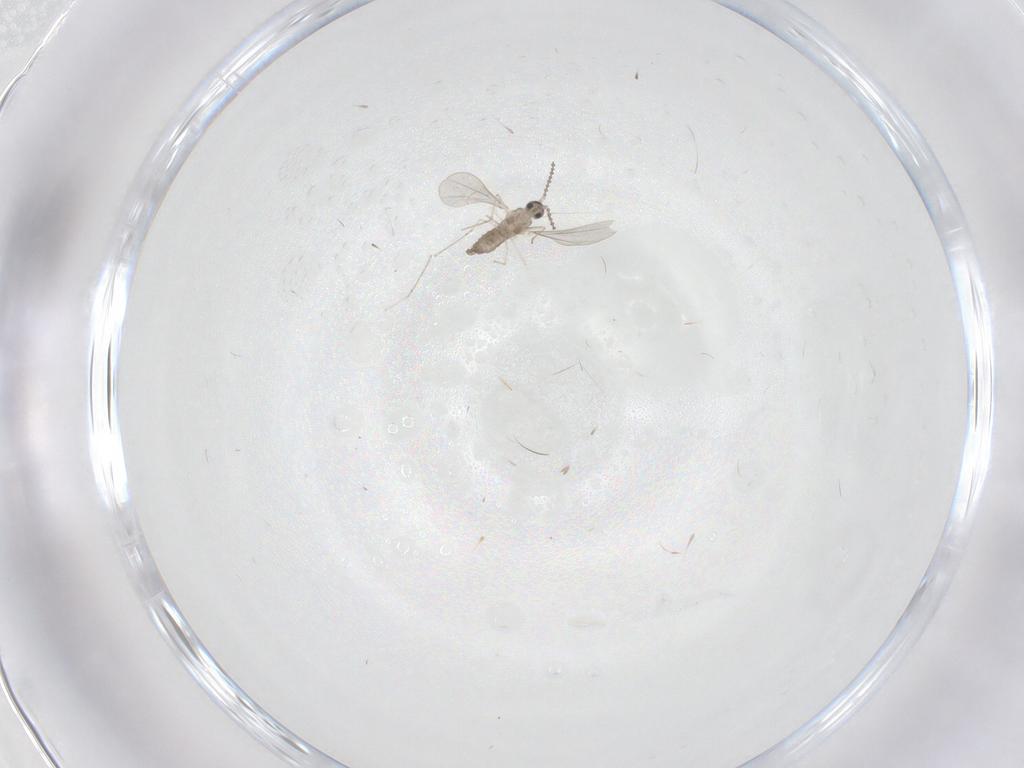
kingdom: Animalia
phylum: Arthropoda
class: Insecta
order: Diptera
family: Cecidomyiidae
